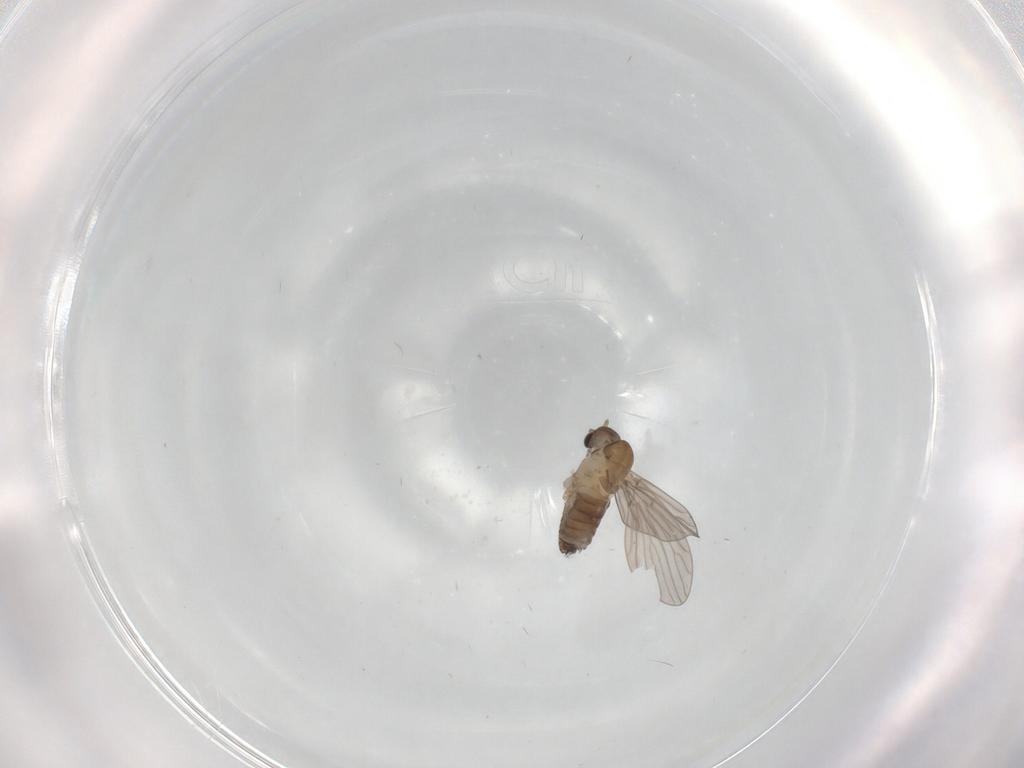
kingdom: Animalia
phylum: Arthropoda
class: Insecta
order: Diptera
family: Psychodidae
